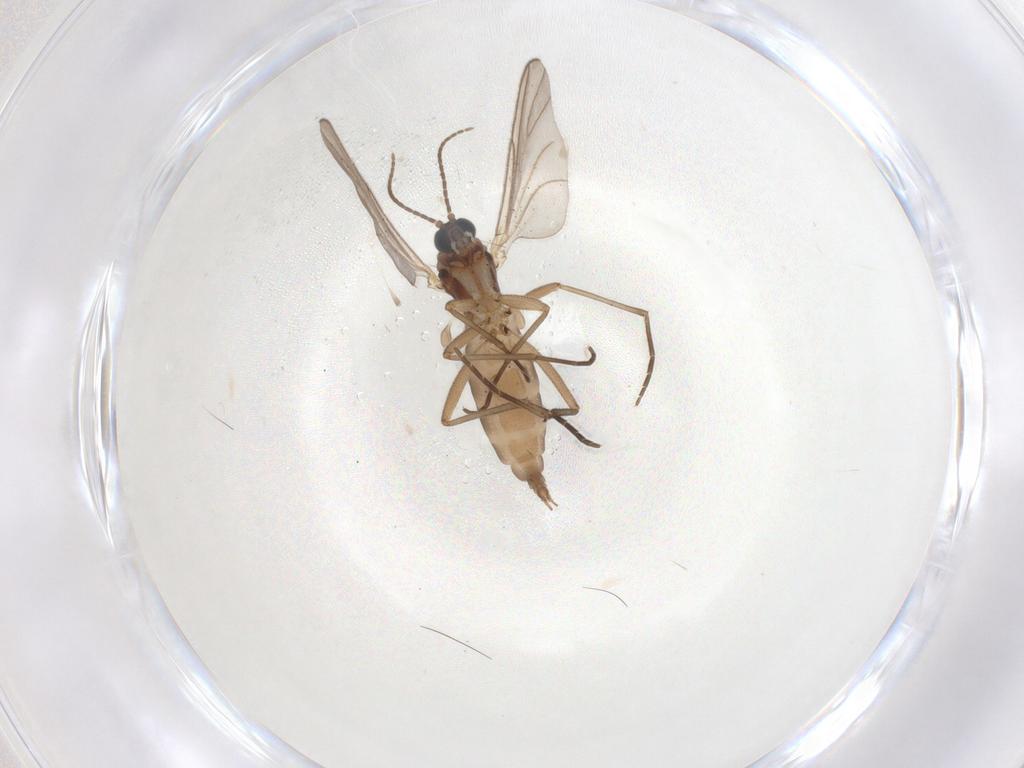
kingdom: Animalia
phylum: Arthropoda
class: Insecta
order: Diptera
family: Sciaridae
